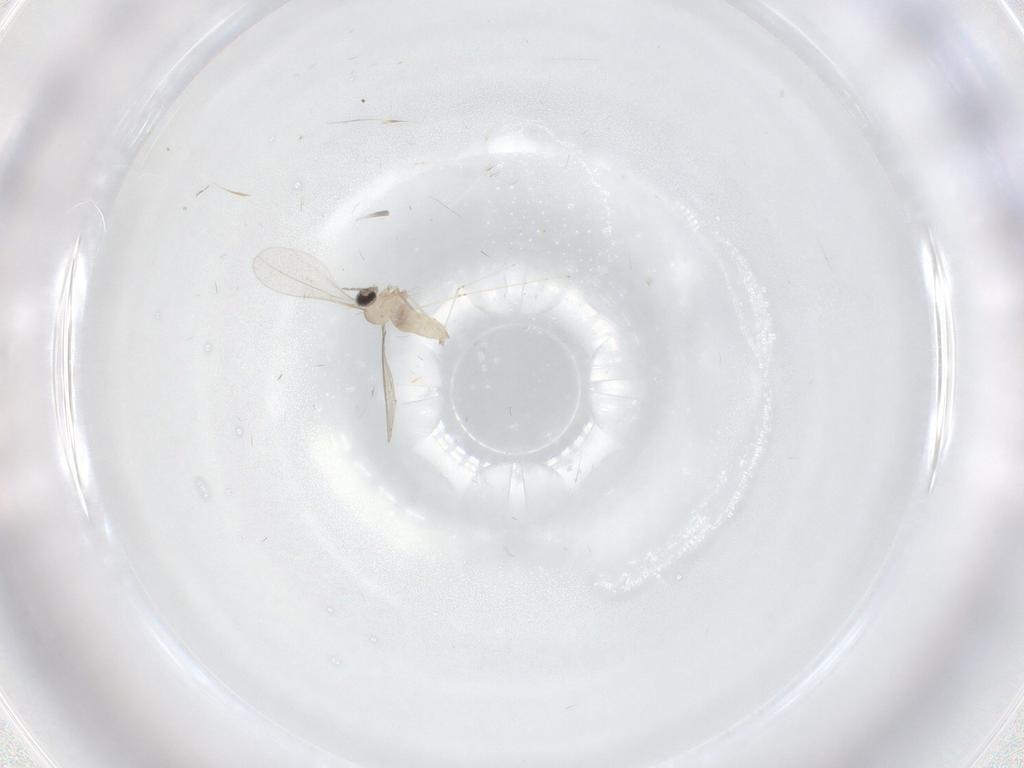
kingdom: Animalia
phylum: Arthropoda
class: Insecta
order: Diptera
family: Cecidomyiidae
